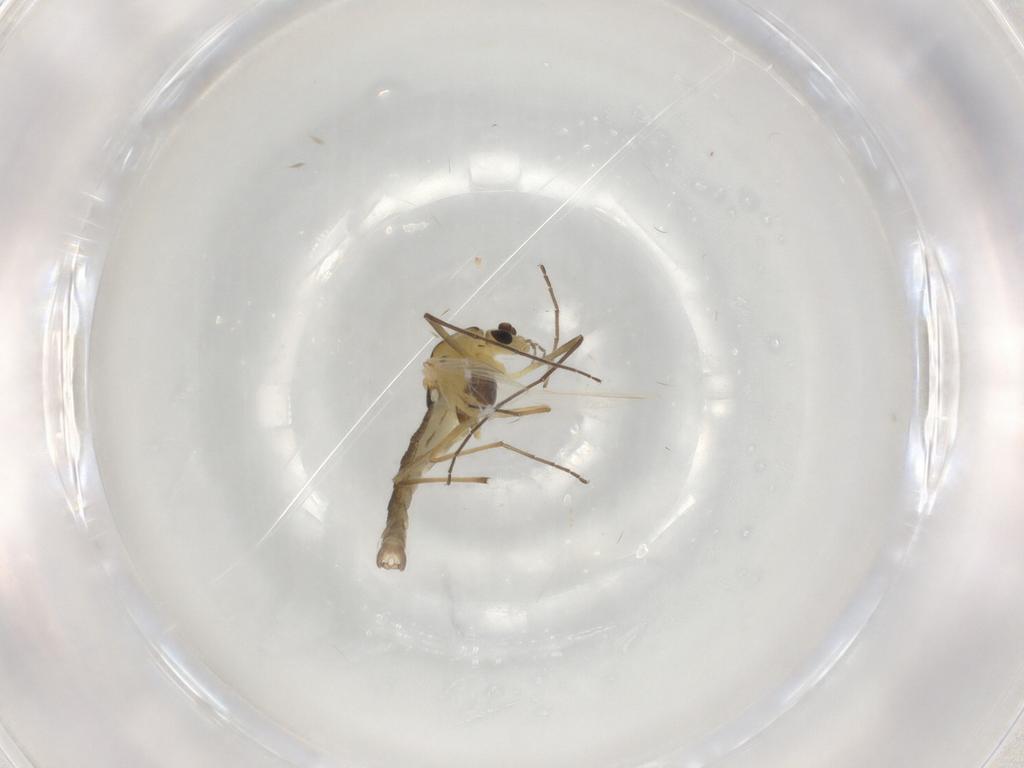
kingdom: Animalia
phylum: Arthropoda
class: Insecta
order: Diptera
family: Chironomidae
